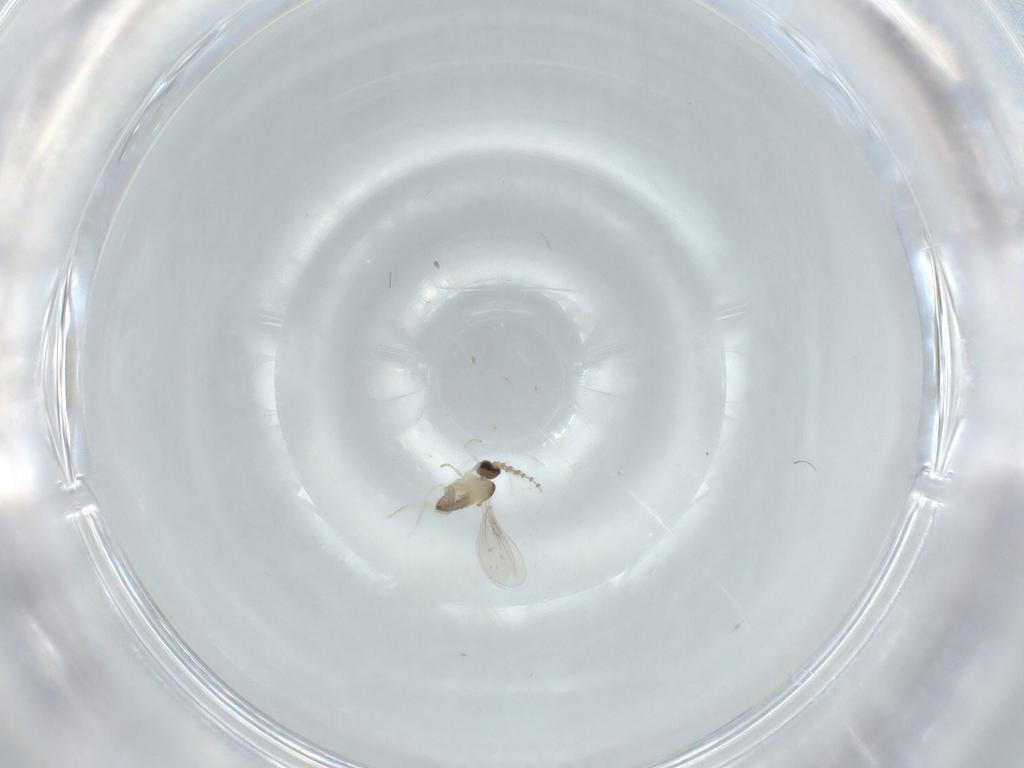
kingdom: Animalia
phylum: Arthropoda
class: Insecta
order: Diptera
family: Cecidomyiidae
